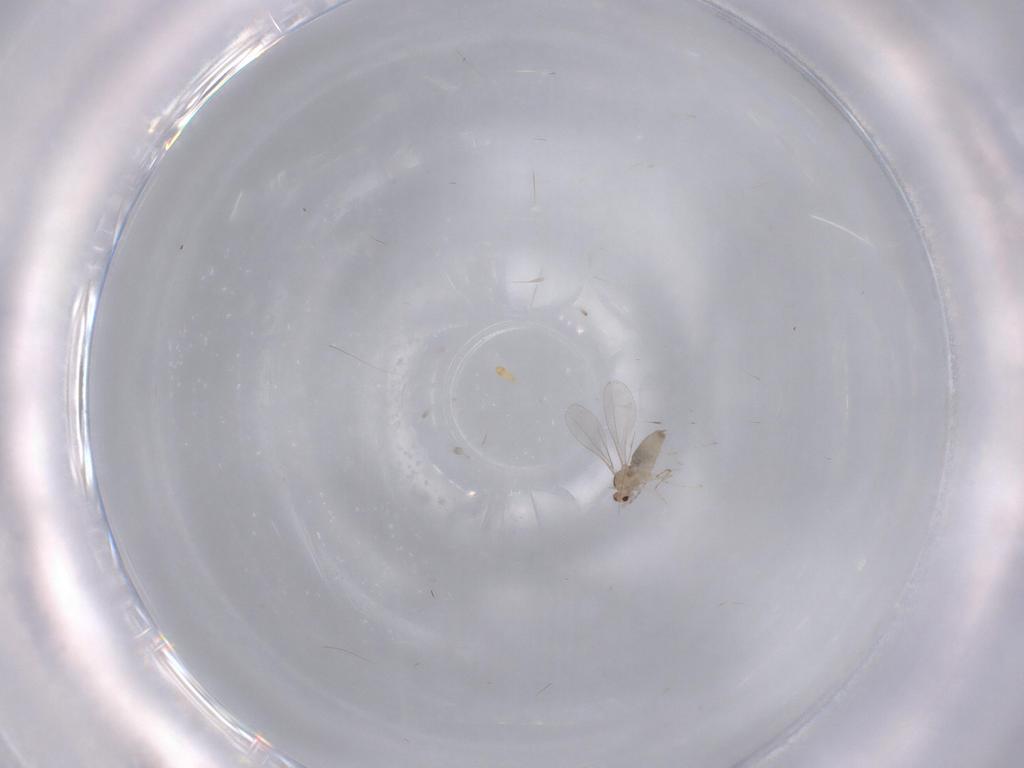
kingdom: Animalia
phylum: Arthropoda
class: Insecta
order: Diptera
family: Cecidomyiidae
